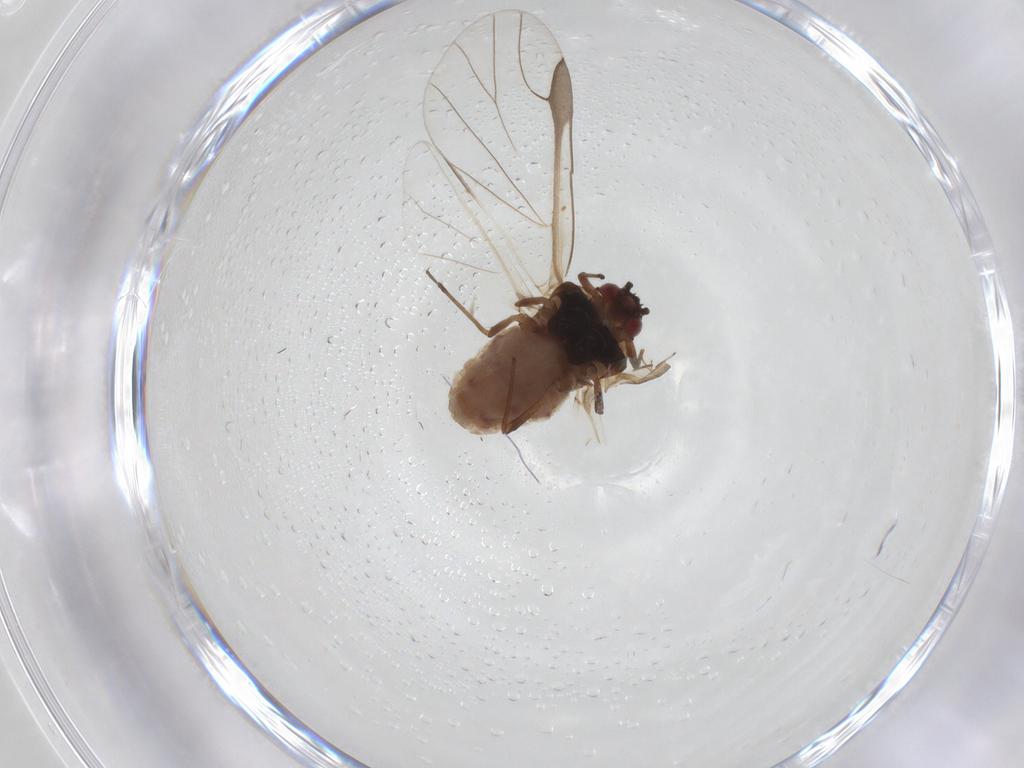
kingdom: Animalia
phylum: Arthropoda
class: Insecta
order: Hemiptera
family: Aphididae
